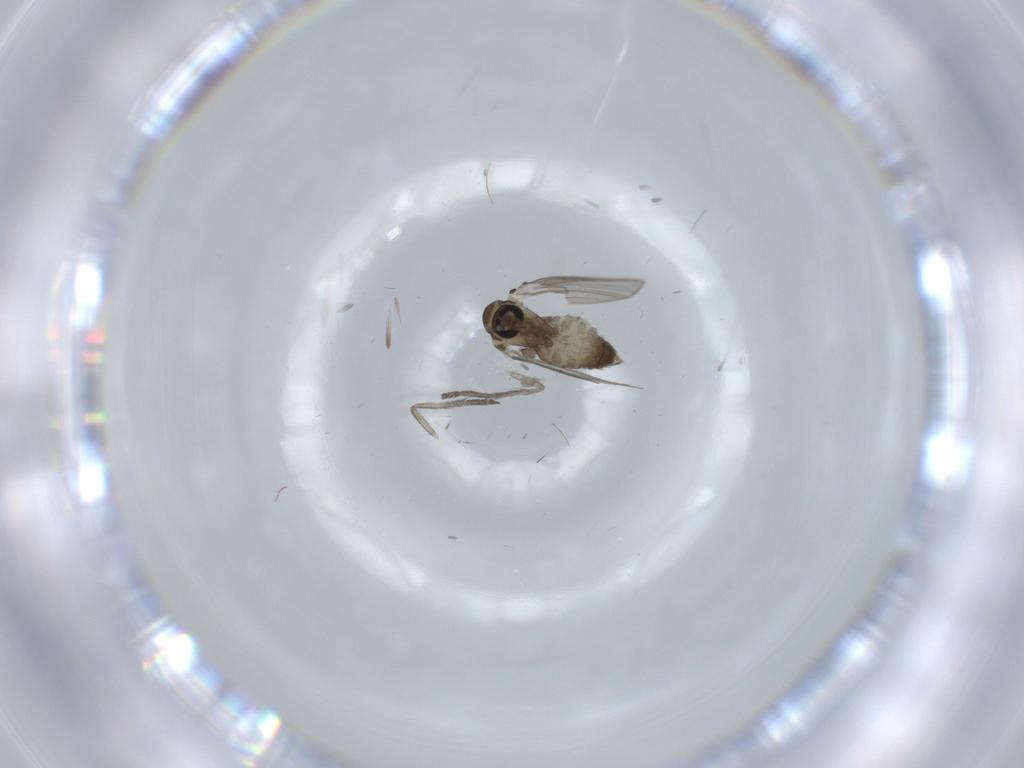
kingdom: Animalia
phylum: Arthropoda
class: Insecta
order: Diptera
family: Psychodidae
